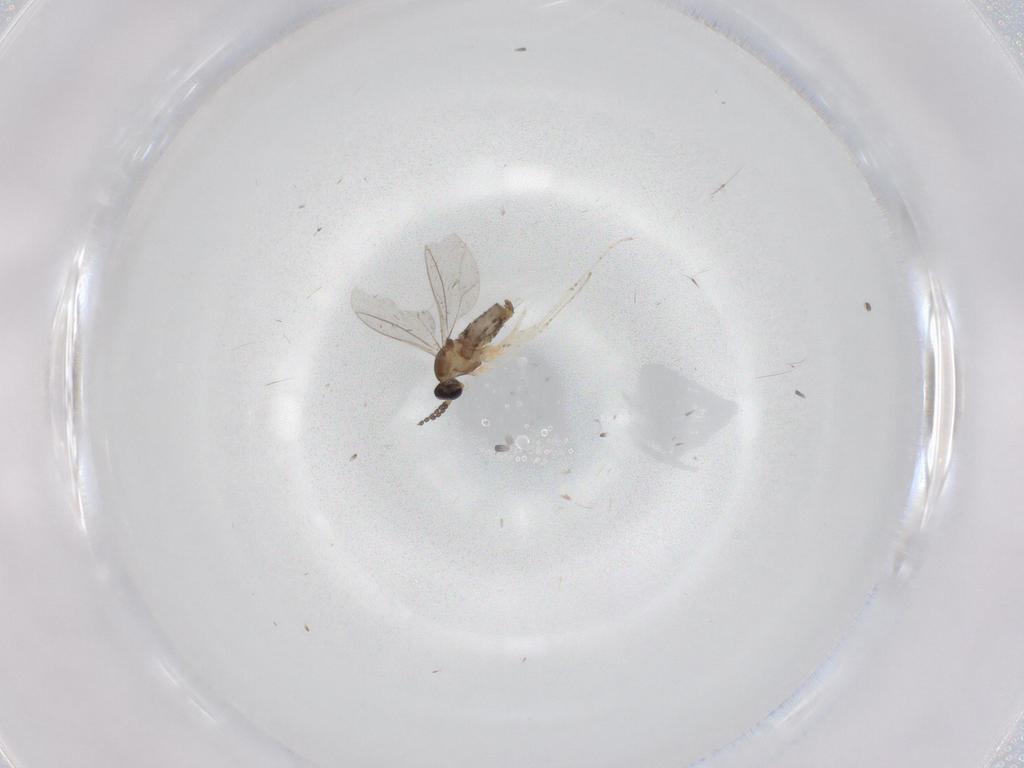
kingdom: Animalia
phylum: Arthropoda
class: Insecta
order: Diptera
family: Cecidomyiidae
